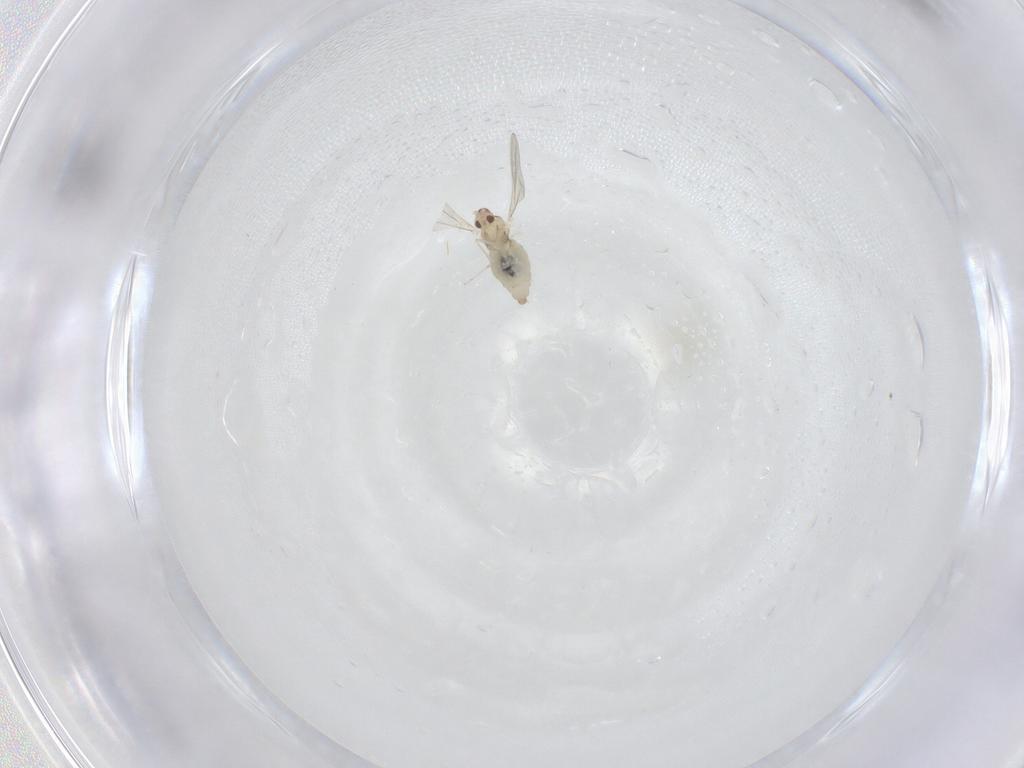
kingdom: Animalia
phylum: Arthropoda
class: Insecta
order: Diptera
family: Cecidomyiidae
